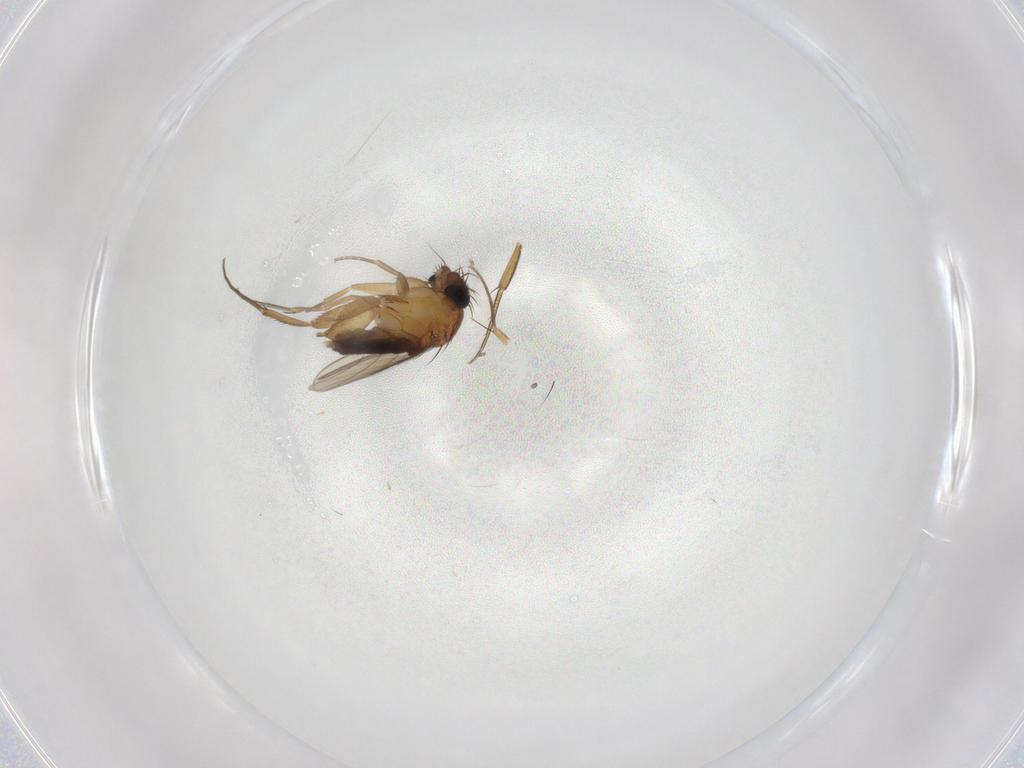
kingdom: Animalia
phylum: Arthropoda
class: Insecta
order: Diptera
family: Phoridae
